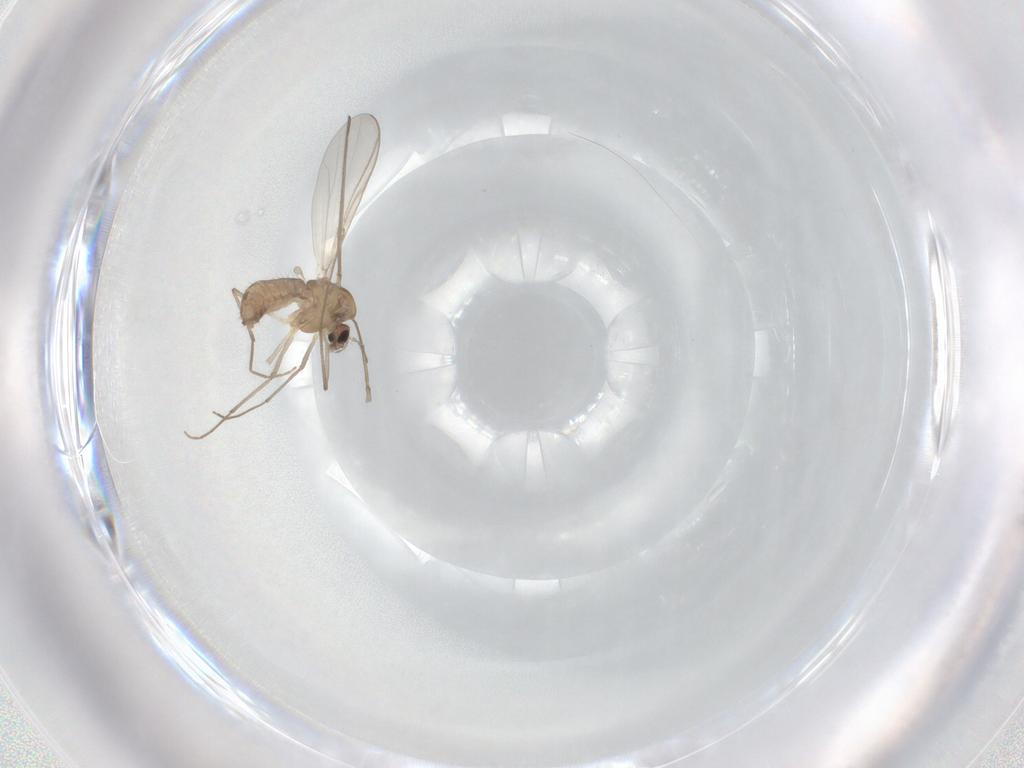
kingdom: Animalia
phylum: Arthropoda
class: Insecta
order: Diptera
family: Chironomidae
